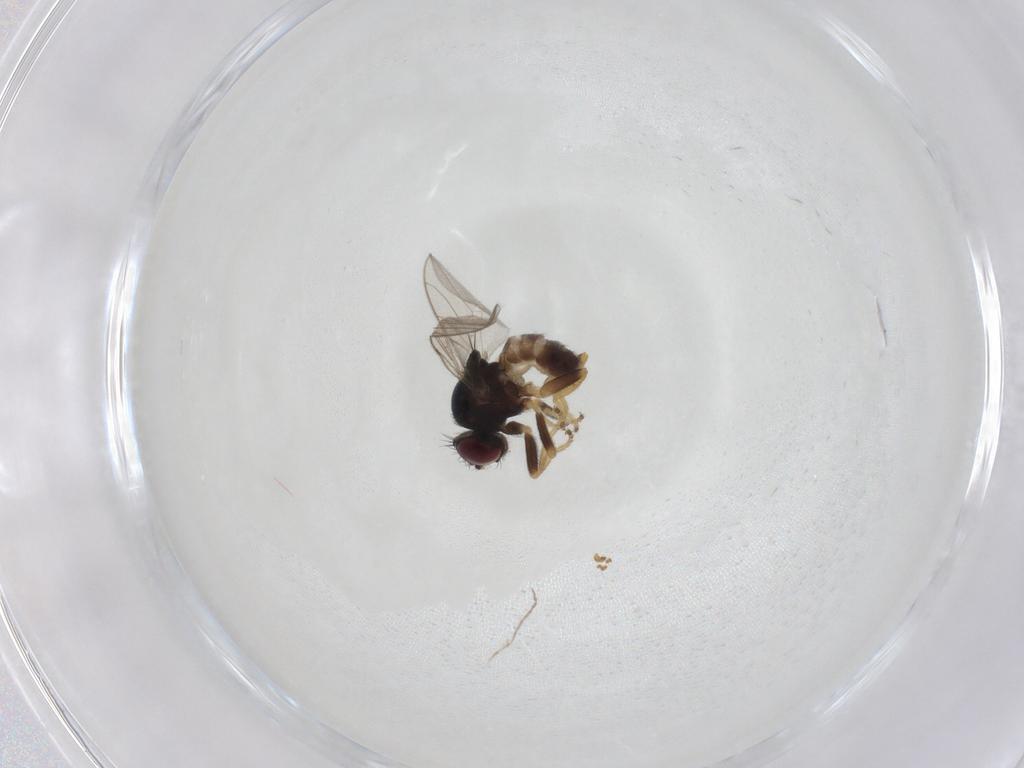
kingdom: Animalia
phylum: Arthropoda
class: Insecta
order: Diptera
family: Chloropidae
